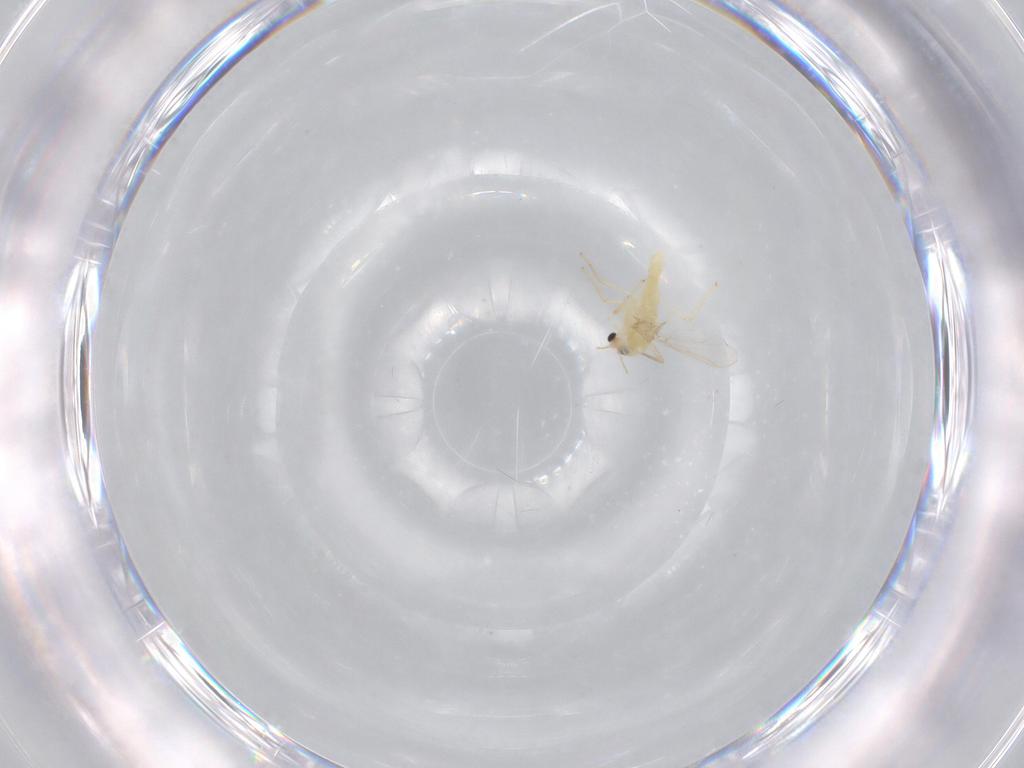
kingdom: Animalia
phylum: Arthropoda
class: Insecta
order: Diptera
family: Chironomidae
